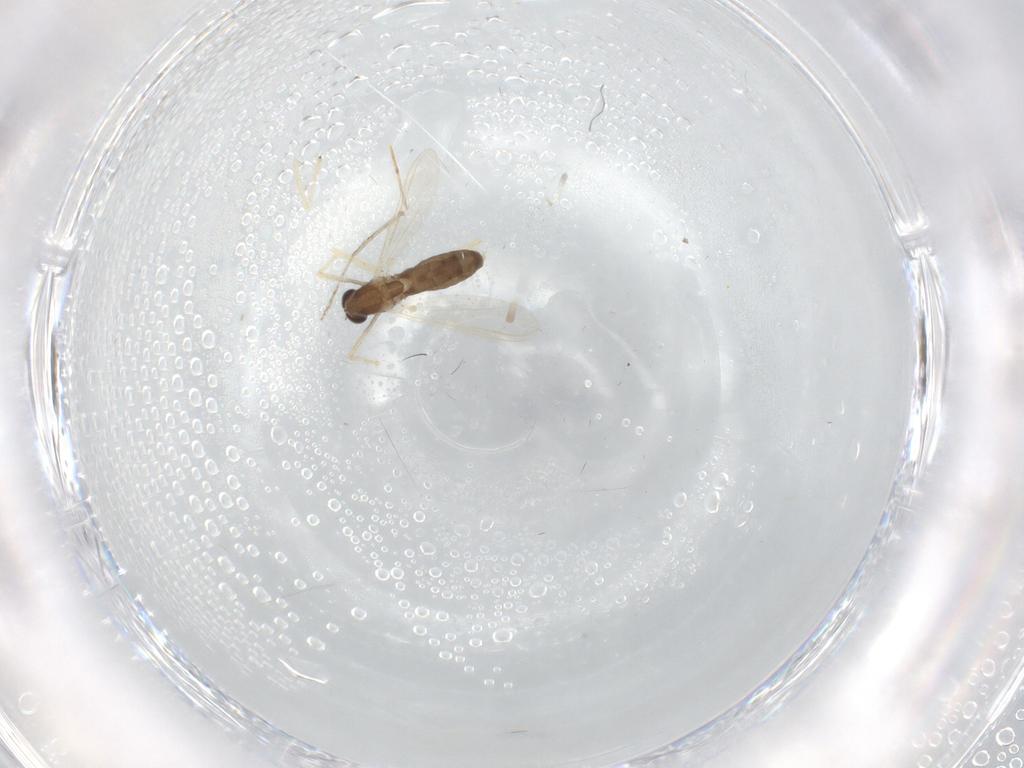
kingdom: Animalia
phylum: Arthropoda
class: Insecta
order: Diptera
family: Chironomidae
